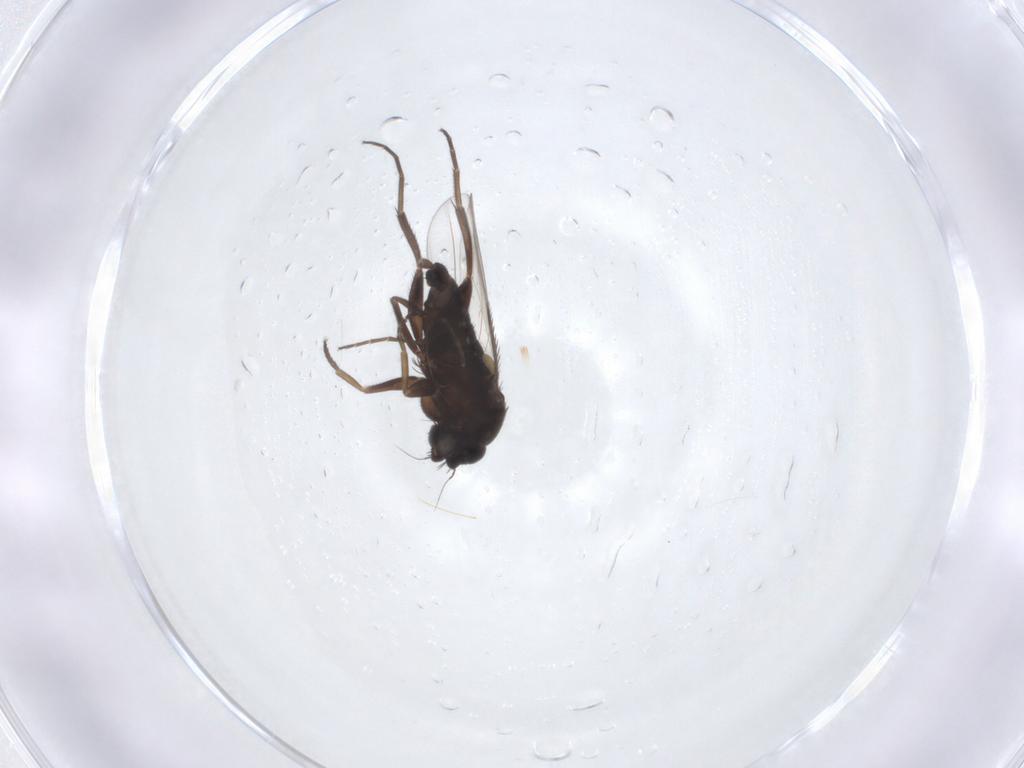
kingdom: Animalia
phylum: Arthropoda
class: Insecta
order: Diptera
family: Phoridae
